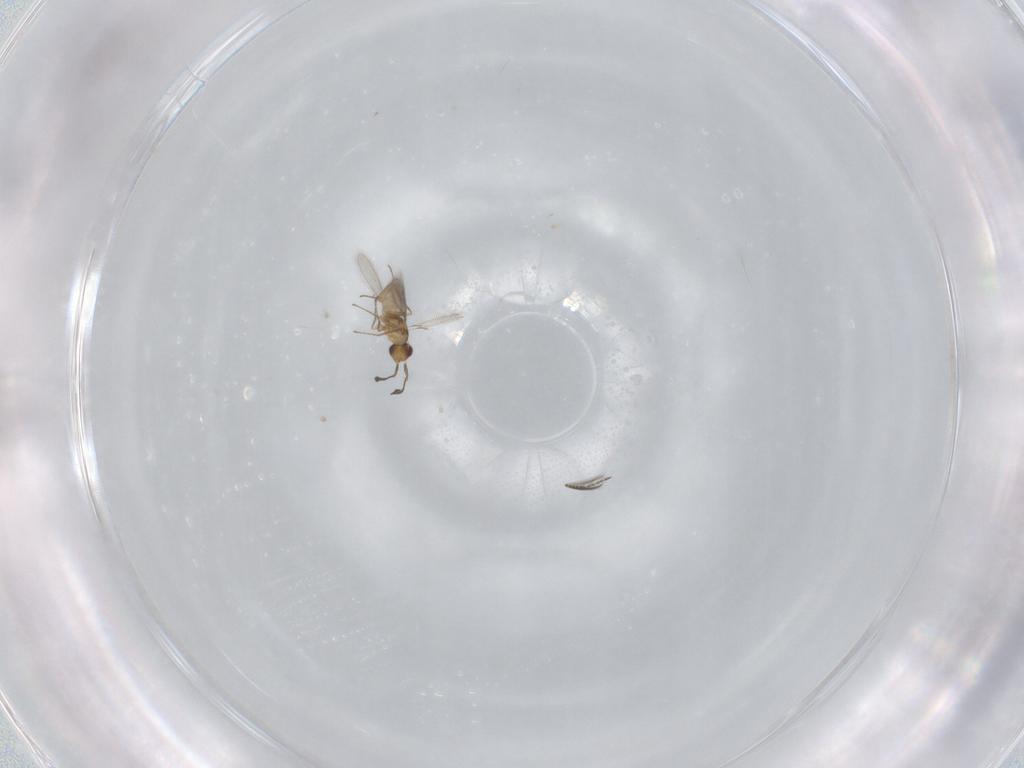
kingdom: Animalia
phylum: Arthropoda
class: Insecta
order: Hymenoptera
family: Mymaridae
